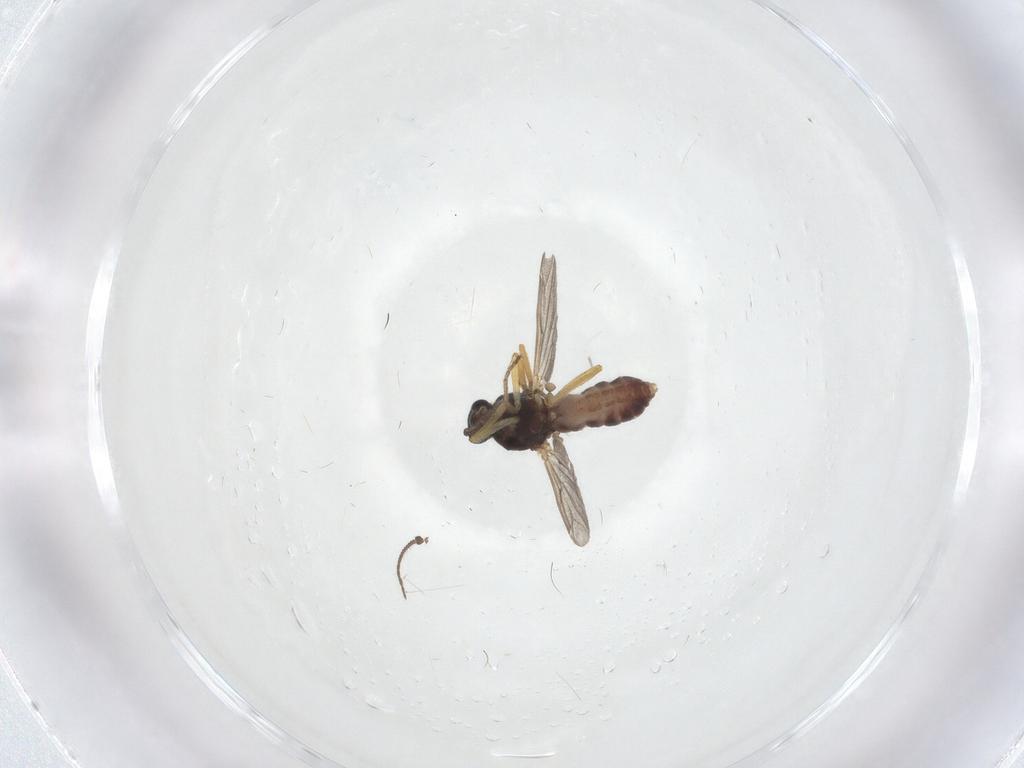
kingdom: Animalia
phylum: Arthropoda
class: Insecta
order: Diptera
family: Ceratopogonidae
